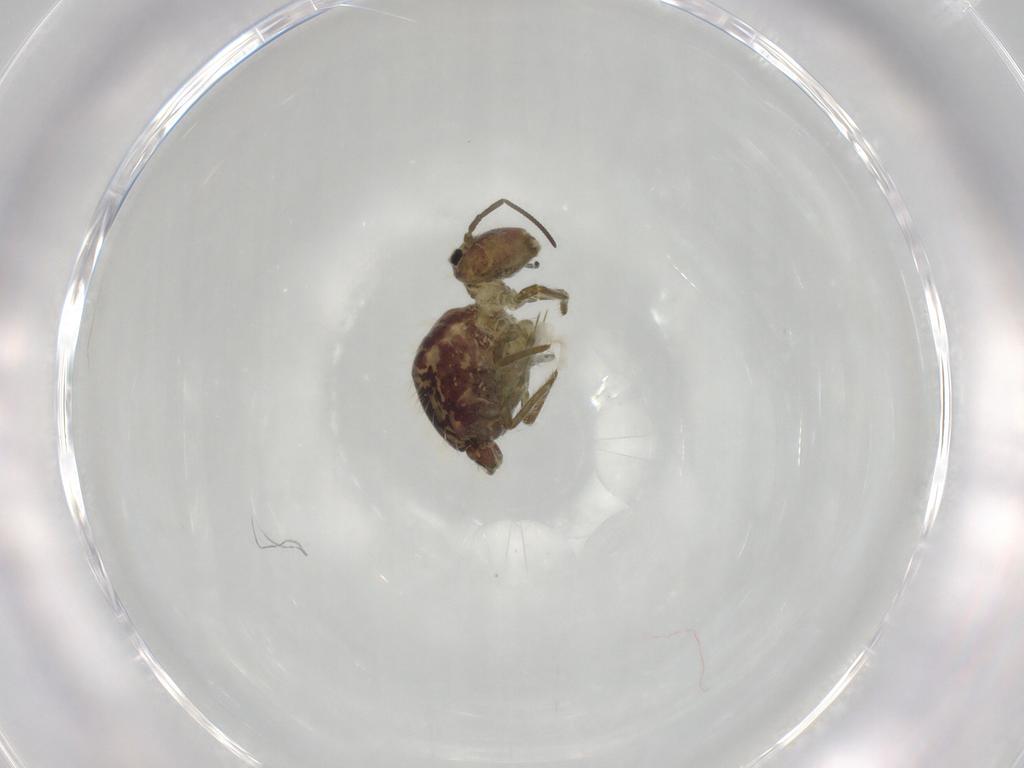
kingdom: Animalia
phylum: Arthropoda
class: Collembola
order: Symphypleona
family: Sminthuridae
